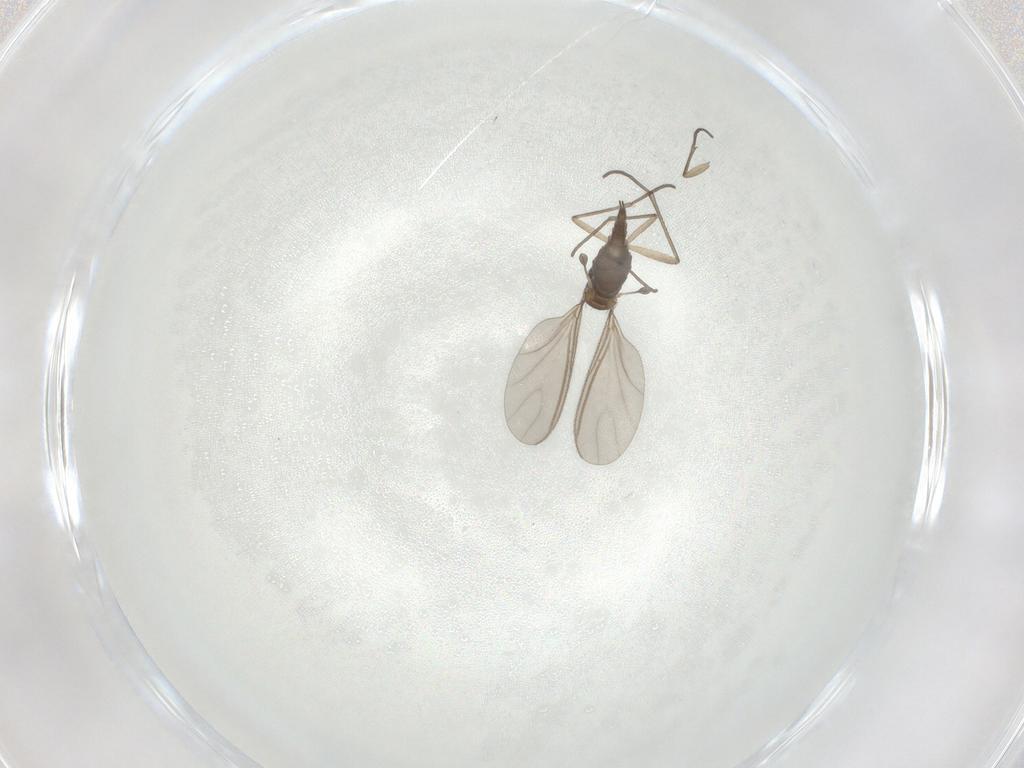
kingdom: Animalia
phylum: Arthropoda
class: Insecta
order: Diptera
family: Sciaridae
